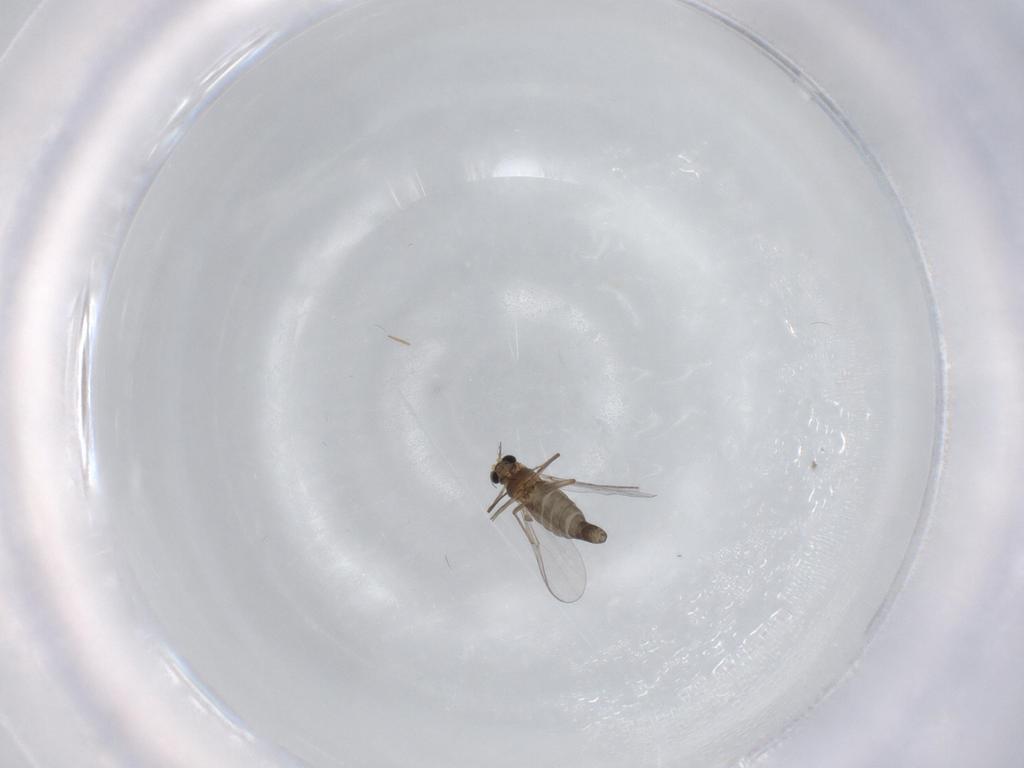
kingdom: Animalia
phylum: Arthropoda
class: Insecta
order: Diptera
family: Chironomidae
